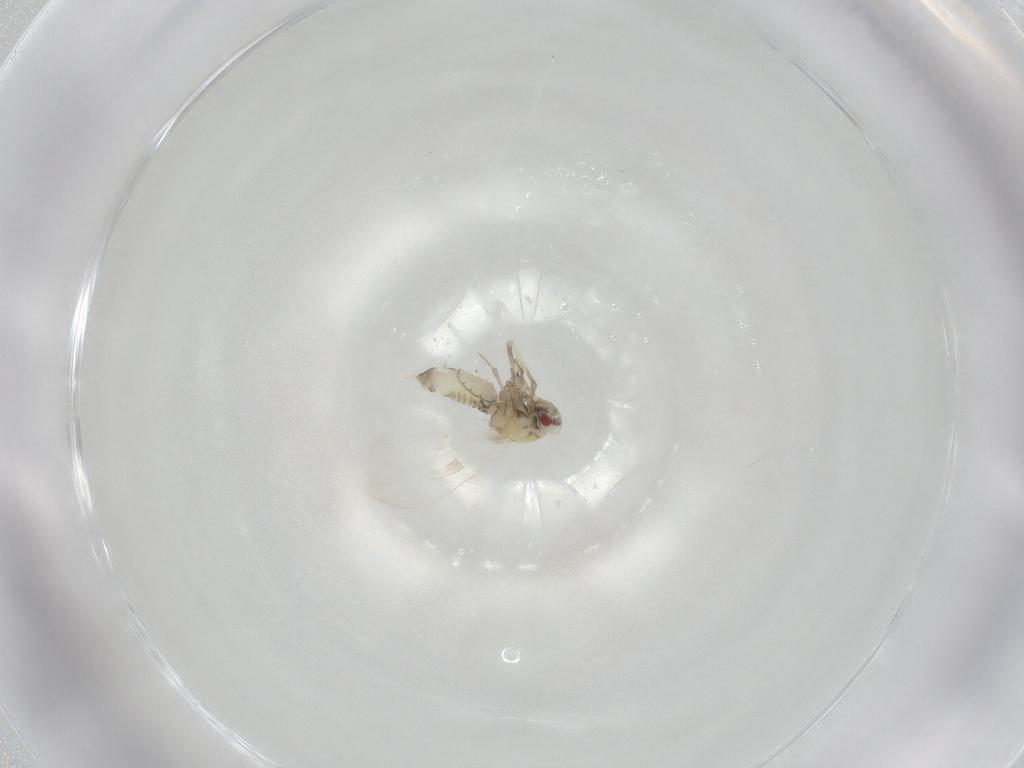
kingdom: Animalia
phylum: Arthropoda
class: Insecta
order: Hemiptera
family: Aleyrodidae
